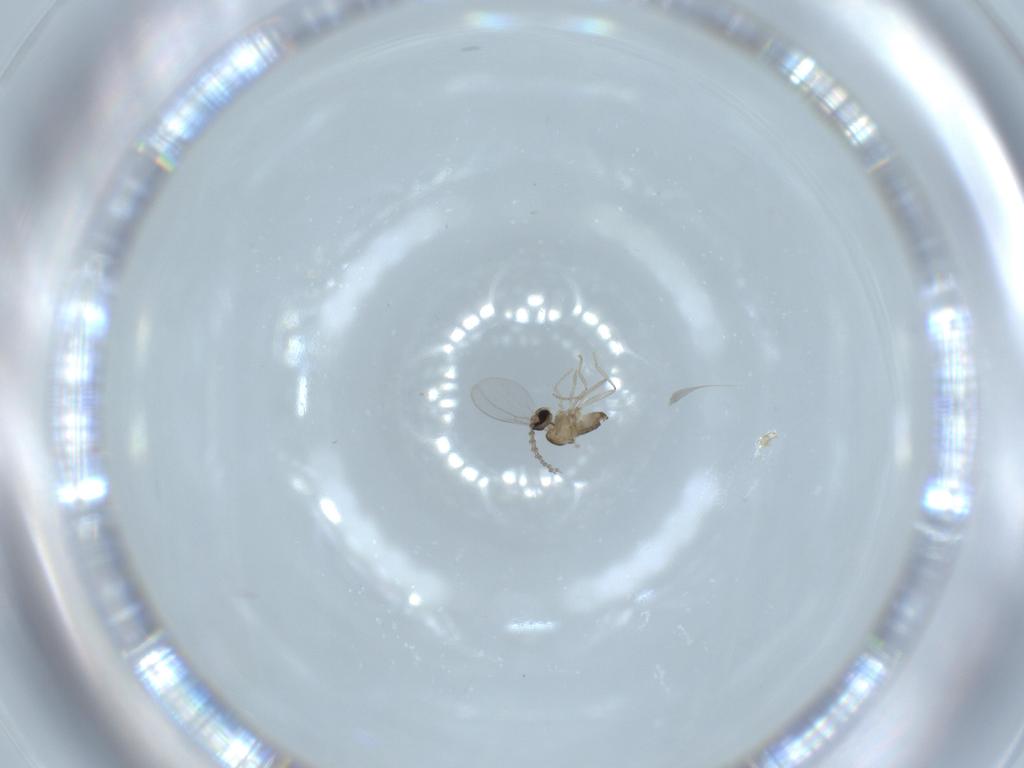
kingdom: Animalia
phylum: Arthropoda
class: Insecta
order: Diptera
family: Cecidomyiidae
